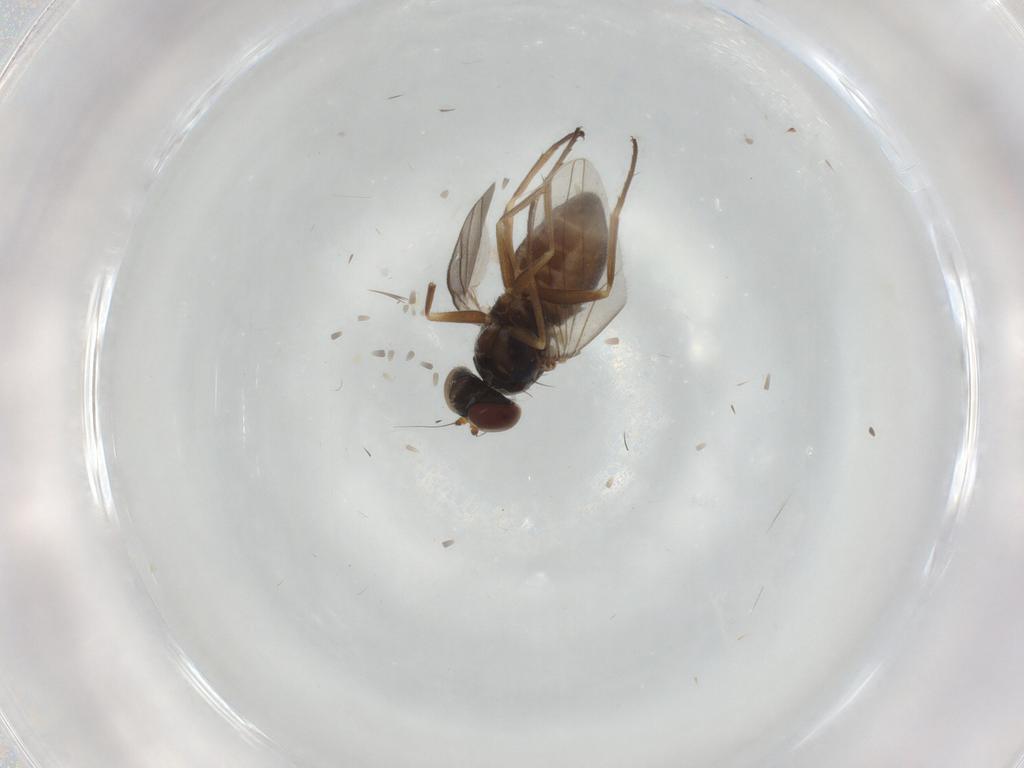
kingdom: Animalia
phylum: Arthropoda
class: Insecta
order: Diptera
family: Dolichopodidae
